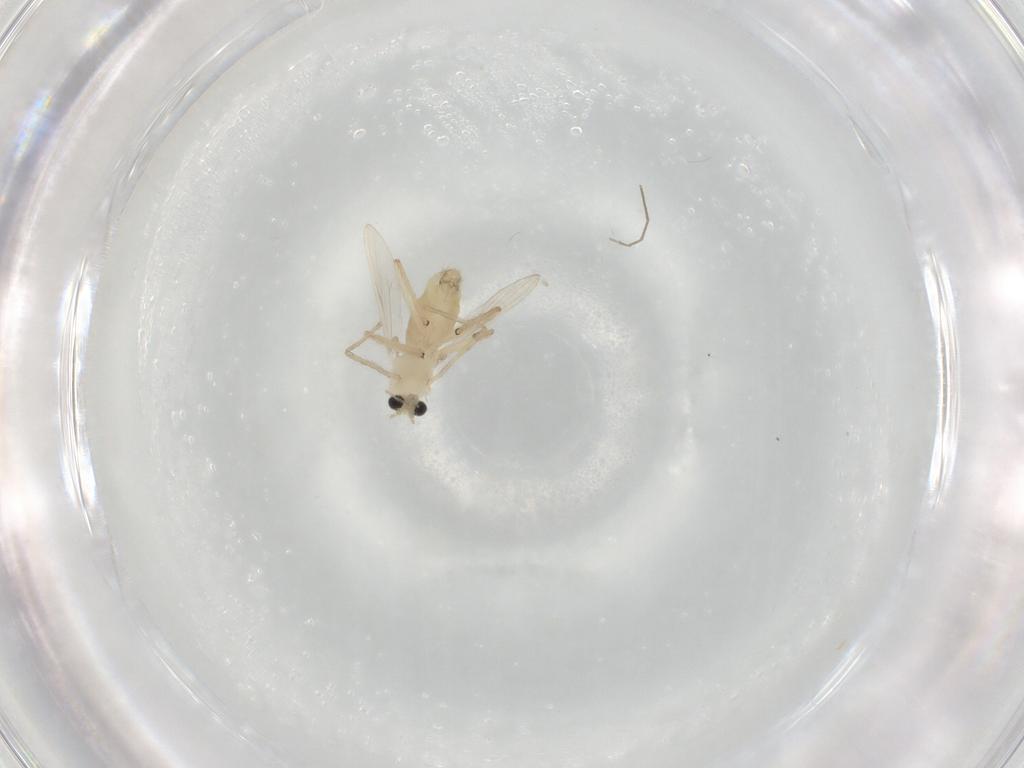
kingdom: Animalia
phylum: Arthropoda
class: Insecta
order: Diptera
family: Chironomidae
